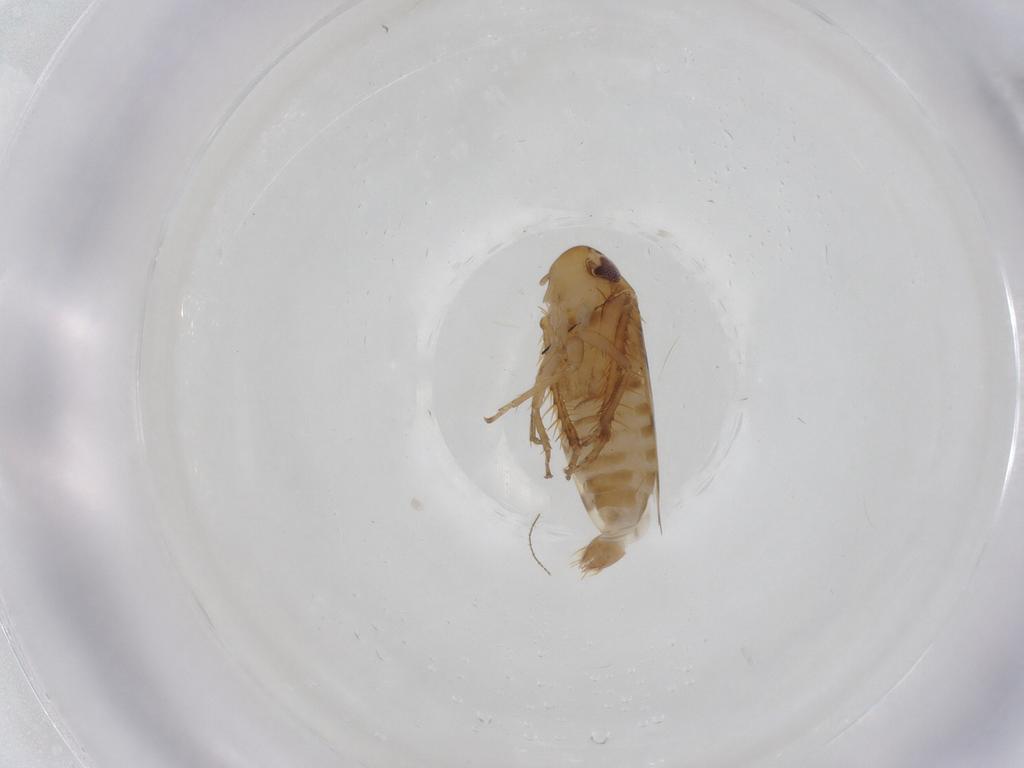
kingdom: Animalia
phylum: Arthropoda
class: Insecta
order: Hemiptera
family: Cicadellidae
